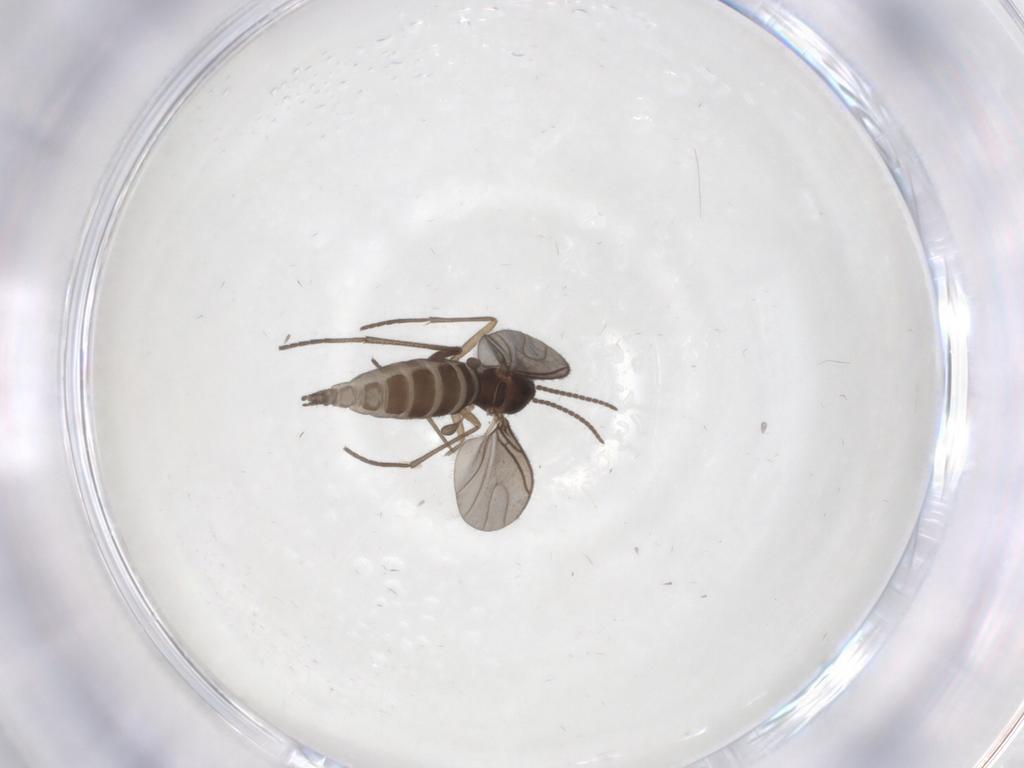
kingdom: Animalia
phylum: Arthropoda
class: Insecta
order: Diptera
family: Sciaridae
